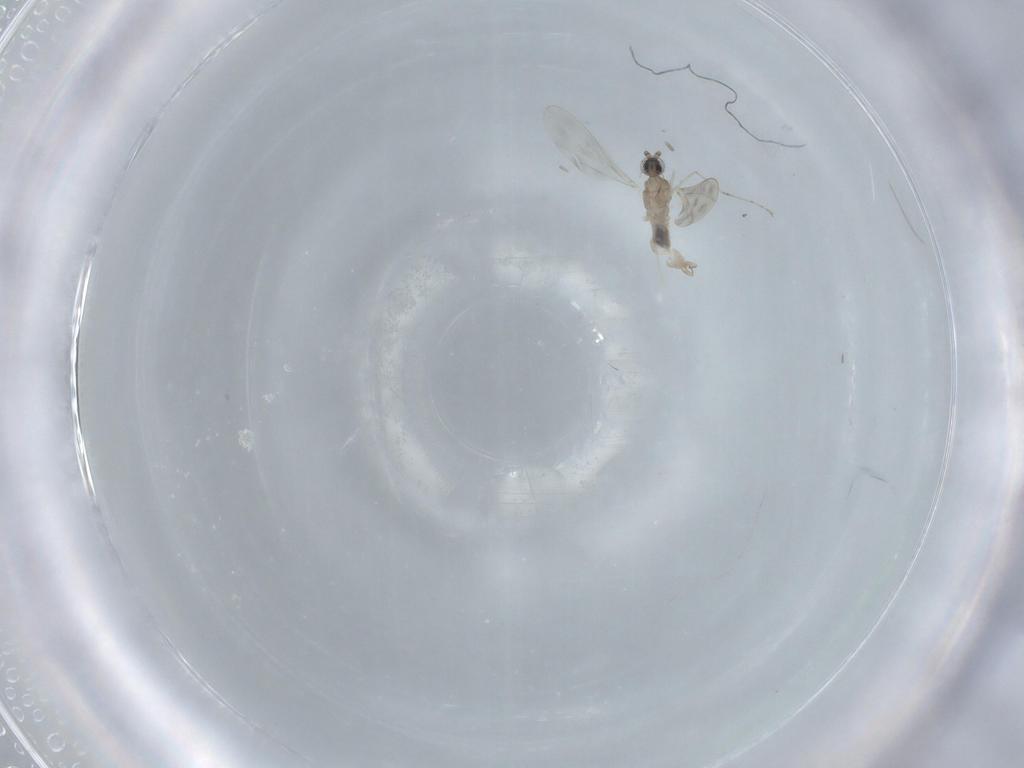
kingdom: Animalia
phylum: Arthropoda
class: Insecta
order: Diptera
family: Cecidomyiidae
